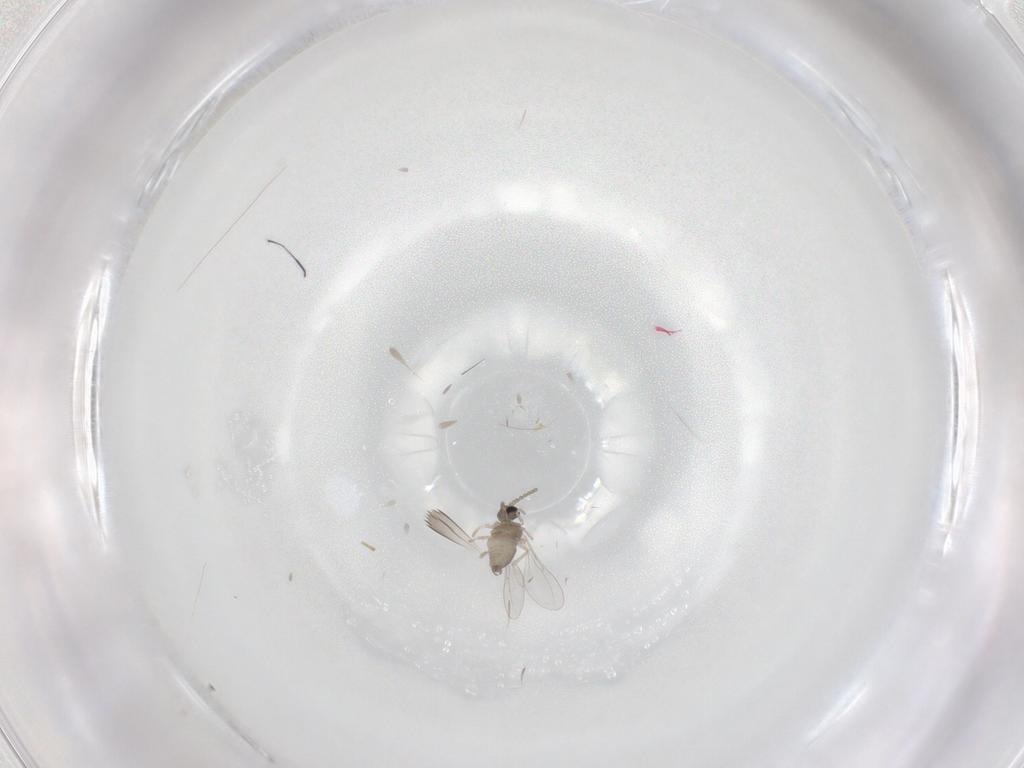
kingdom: Animalia
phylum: Arthropoda
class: Insecta
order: Diptera
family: Cecidomyiidae
